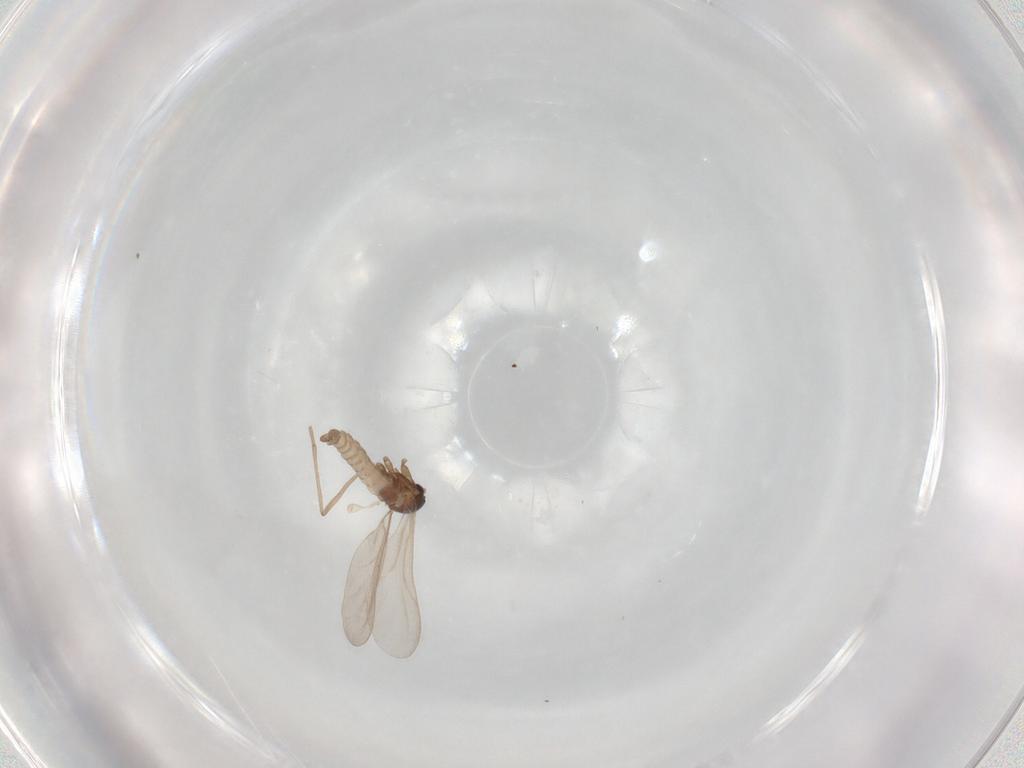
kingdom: Animalia
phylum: Arthropoda
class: Insecta
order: Diptera
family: Cecidomyiidae
